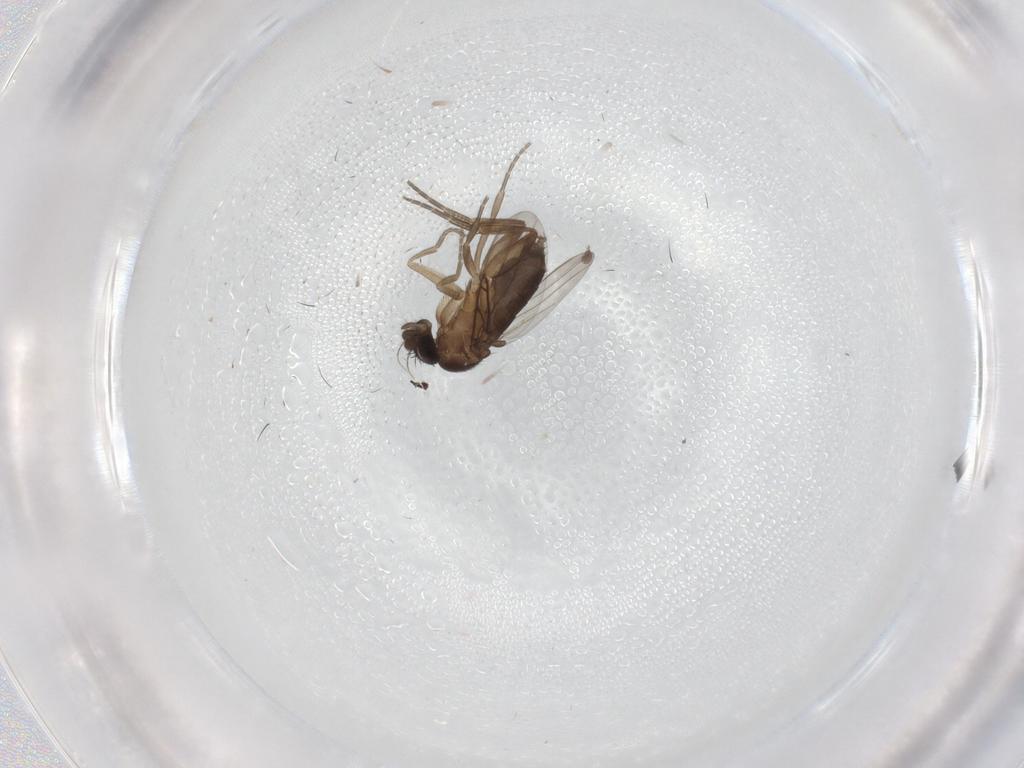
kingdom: Animalia
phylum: Arthropoda
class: Insecta
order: Diptera
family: Phoridae
